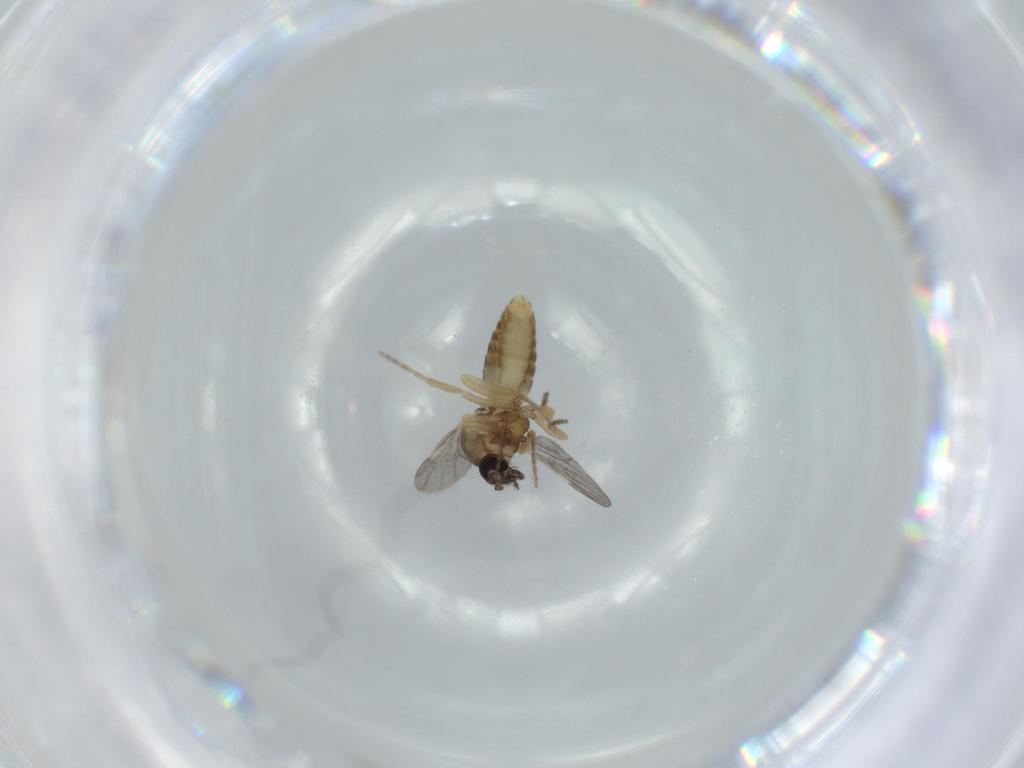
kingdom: Animalia
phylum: Arthropoda
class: Insecta
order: Diptera
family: Ceratopogonidae
